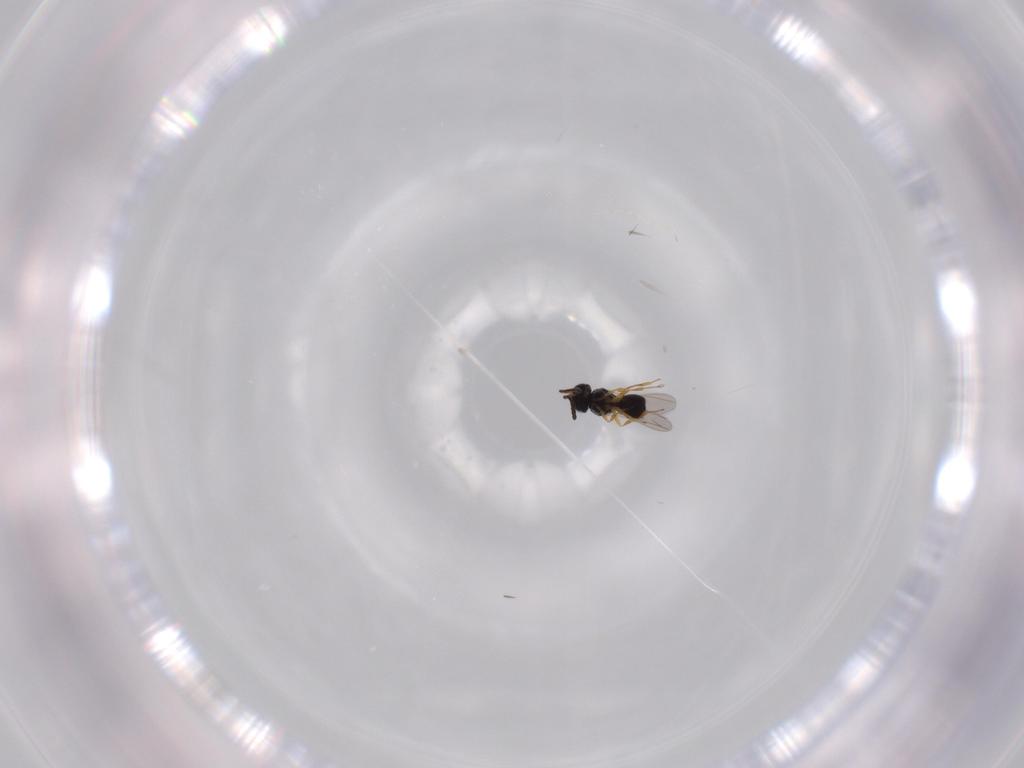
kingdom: Animalia
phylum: Arthropoda
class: Insecta
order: Hymenoptera
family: Scelionidae
